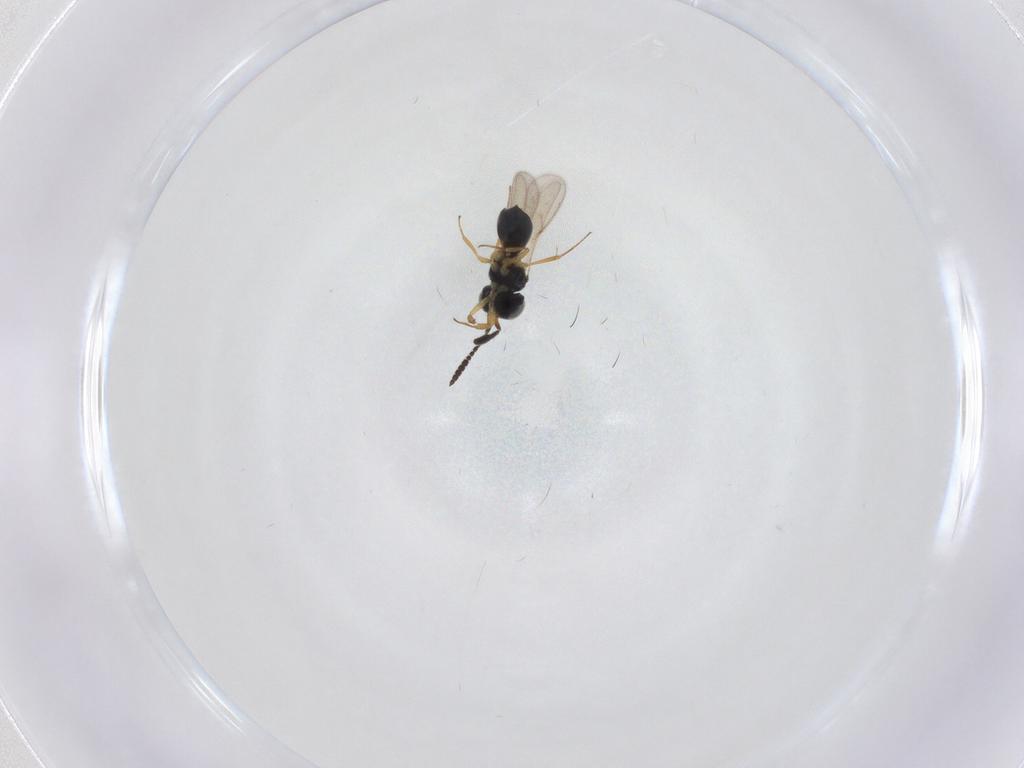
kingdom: Animalia
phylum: Arthropoda
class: Insecta
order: Hymenoptera
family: Scelionidae
